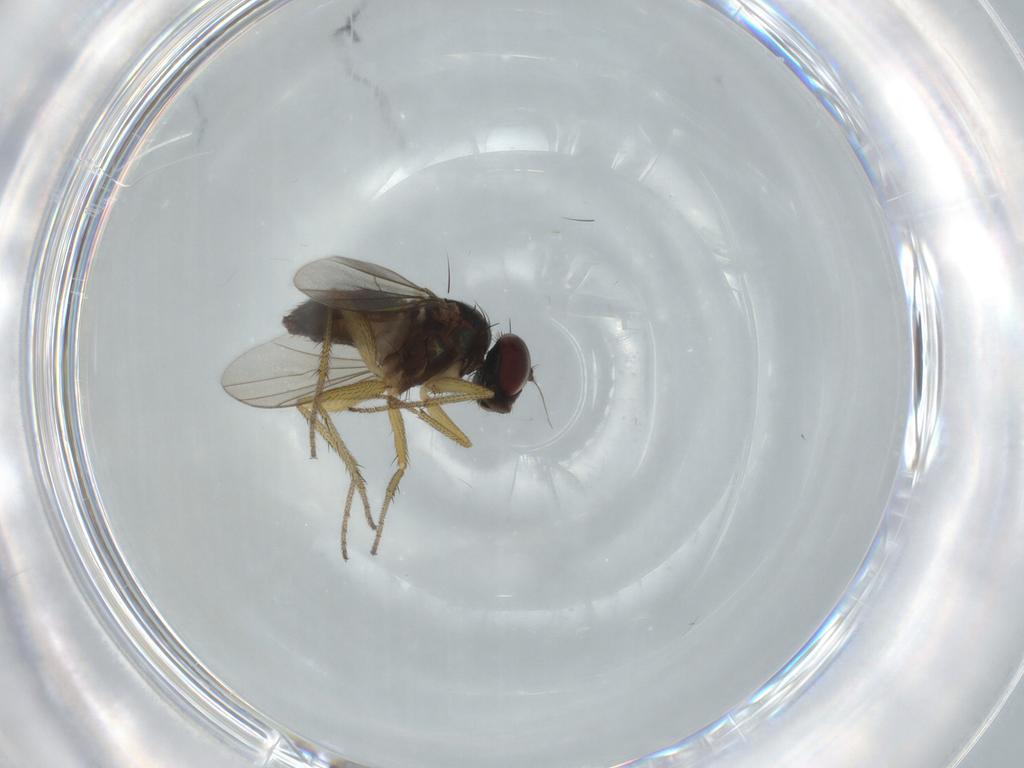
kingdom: Animalia
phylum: Arthropoda
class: Insecta
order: Diptera
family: Dolichopodidae
